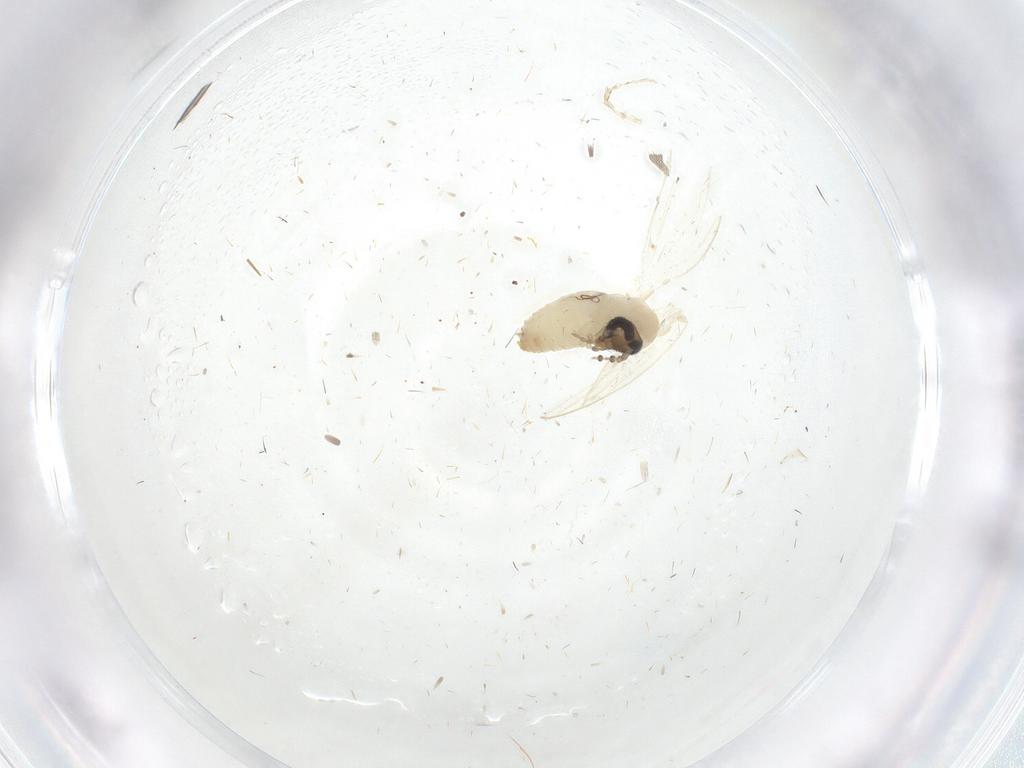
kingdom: Animalia
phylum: Arthropoda
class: Insecta
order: Diptera
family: Psychodidae
